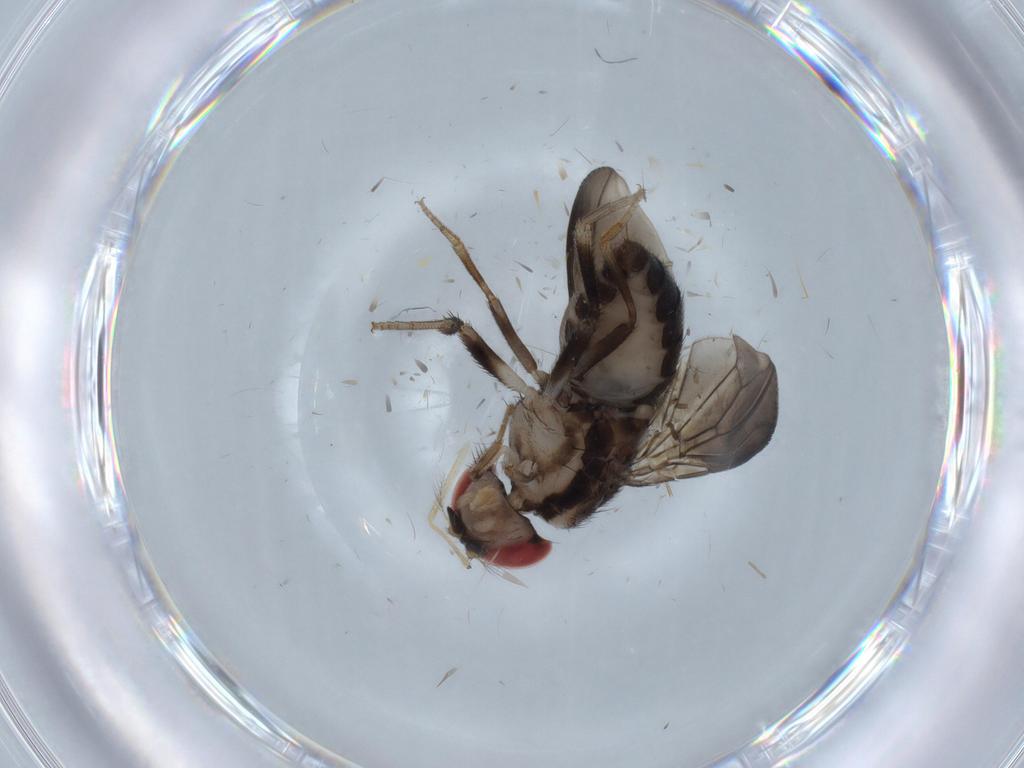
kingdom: Animalia
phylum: Arthropoda
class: Insecta
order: Diptera
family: Drosophilidae
